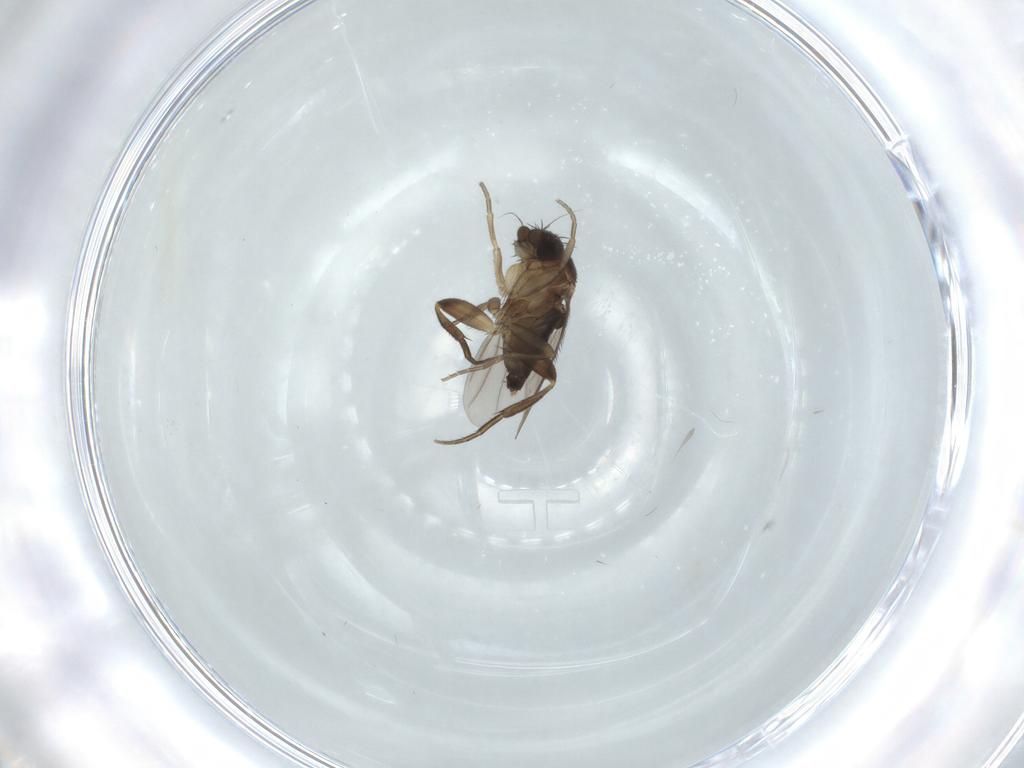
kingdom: Animalia
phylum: Arthropoda
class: Insecta
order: Diptera
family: Phoridae
